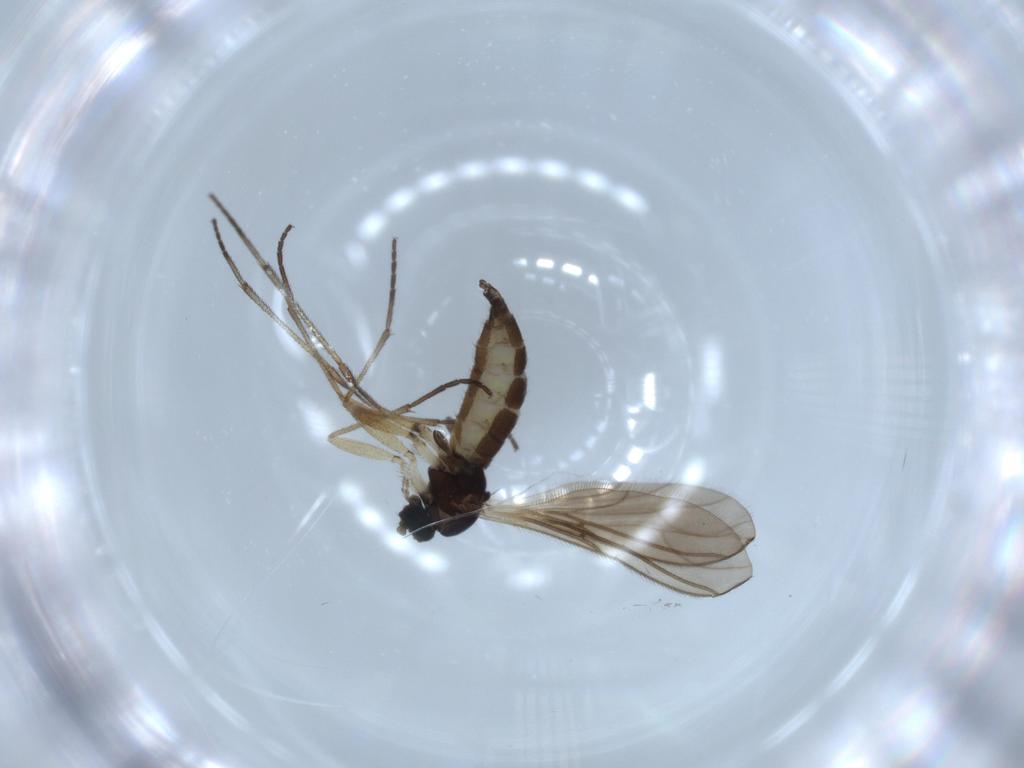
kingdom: Animalia
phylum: Arthropoda
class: Insecta
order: Diptera
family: Sciaridae
